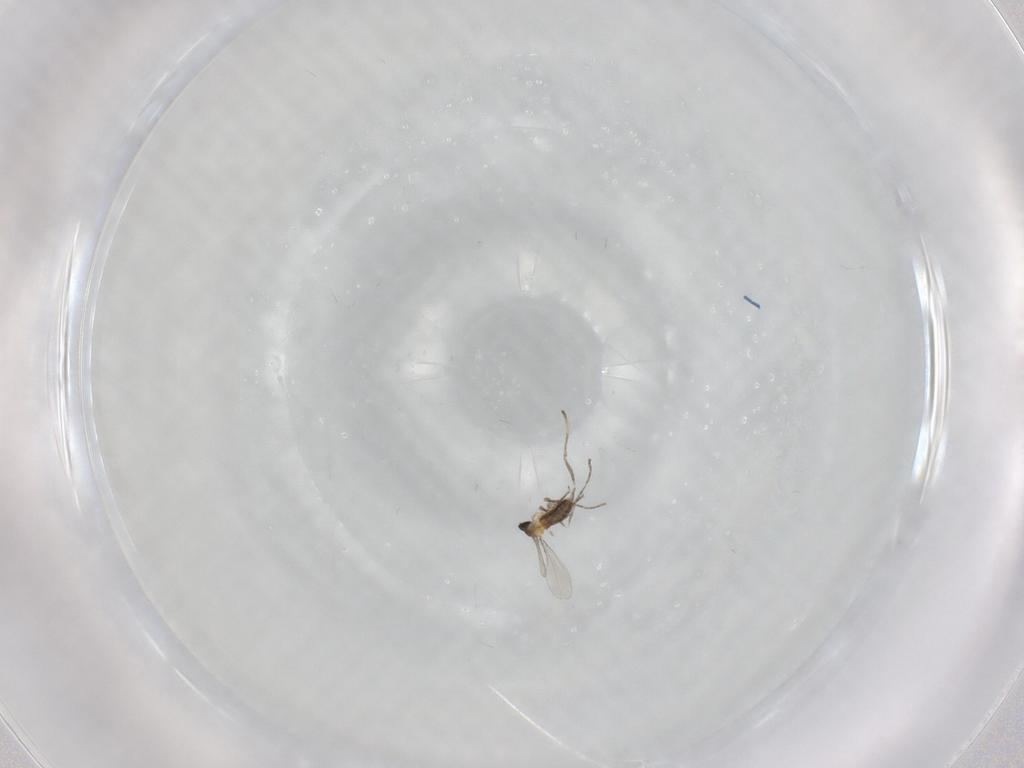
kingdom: Animalia
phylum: Arthropoda
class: Insecta
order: Diptera
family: Cecidomyiidae
